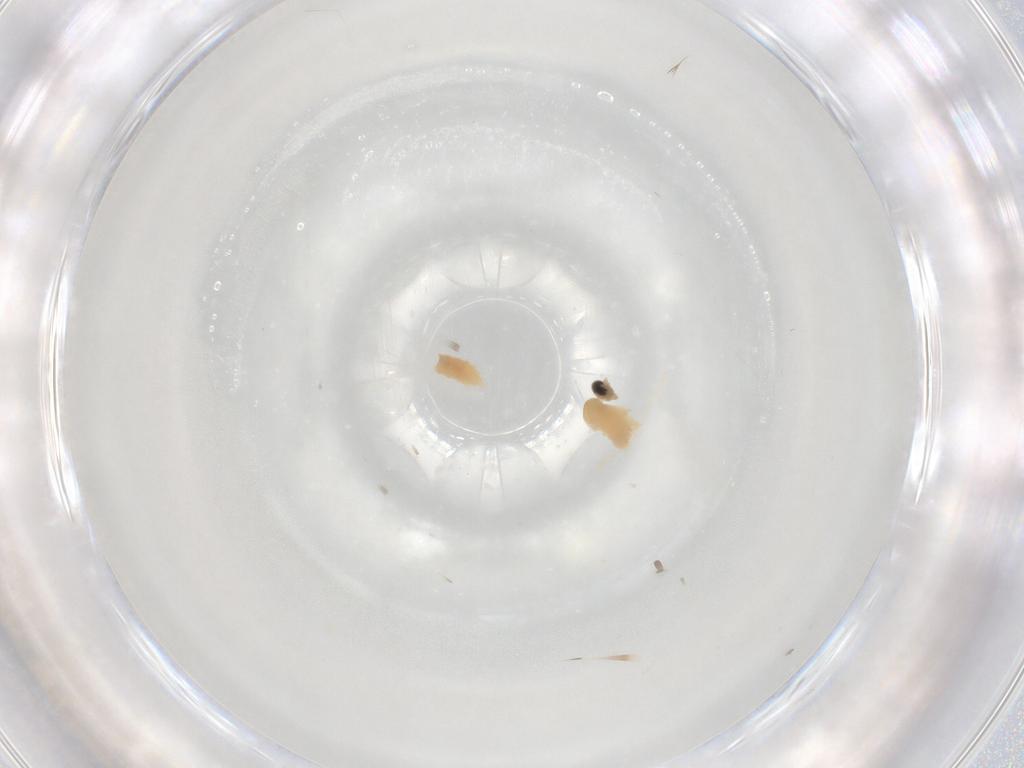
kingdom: Animalia
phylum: Arthropoda
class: Insecta
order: Diptera
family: Cecidomyiidae
